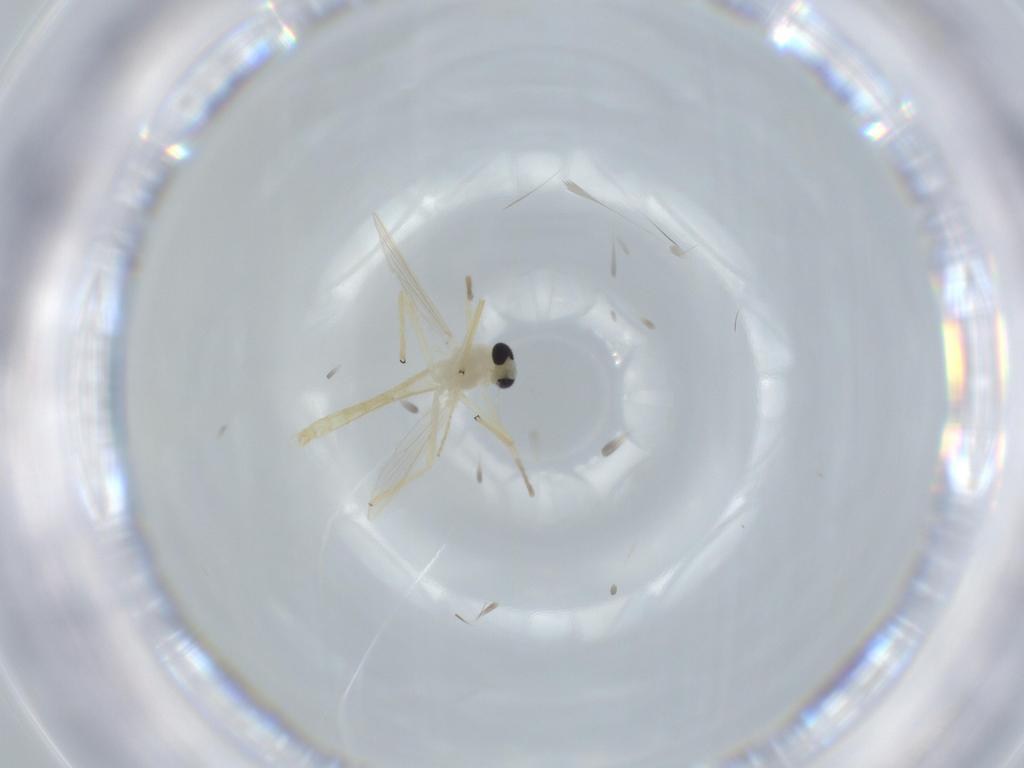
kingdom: Animalia
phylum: Arthropoda
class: Insecta
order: Diptera
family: Chironomidae
